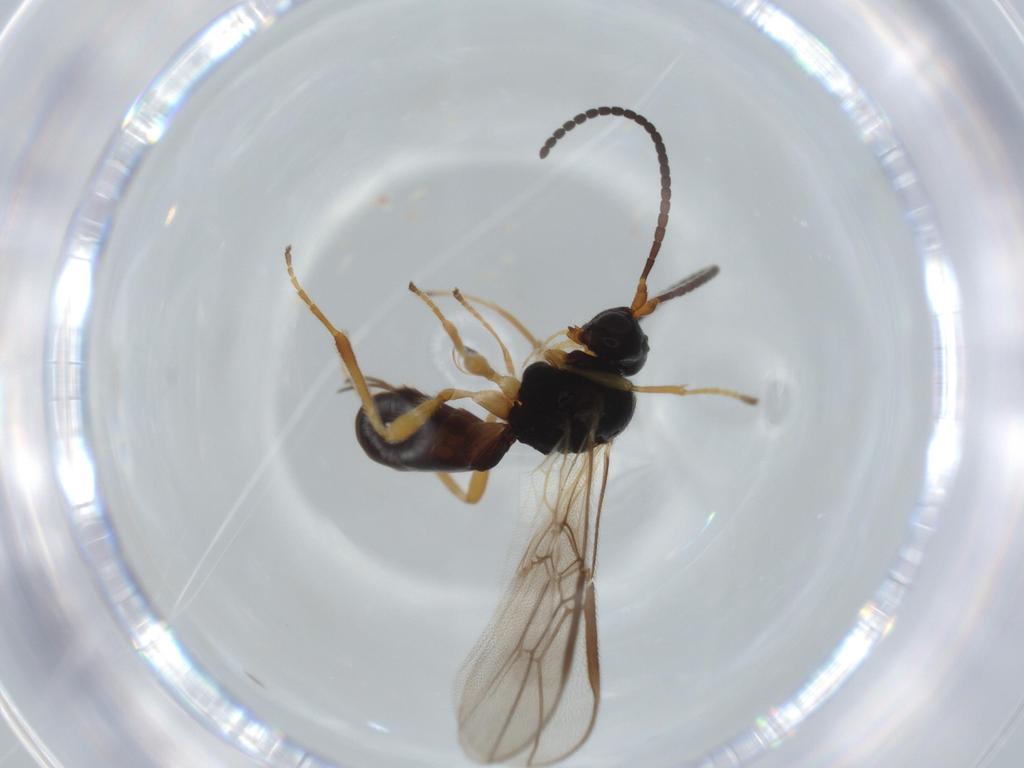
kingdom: Animalia
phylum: Arthropoda
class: Insecta
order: Hymenoptera
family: Braconidae
